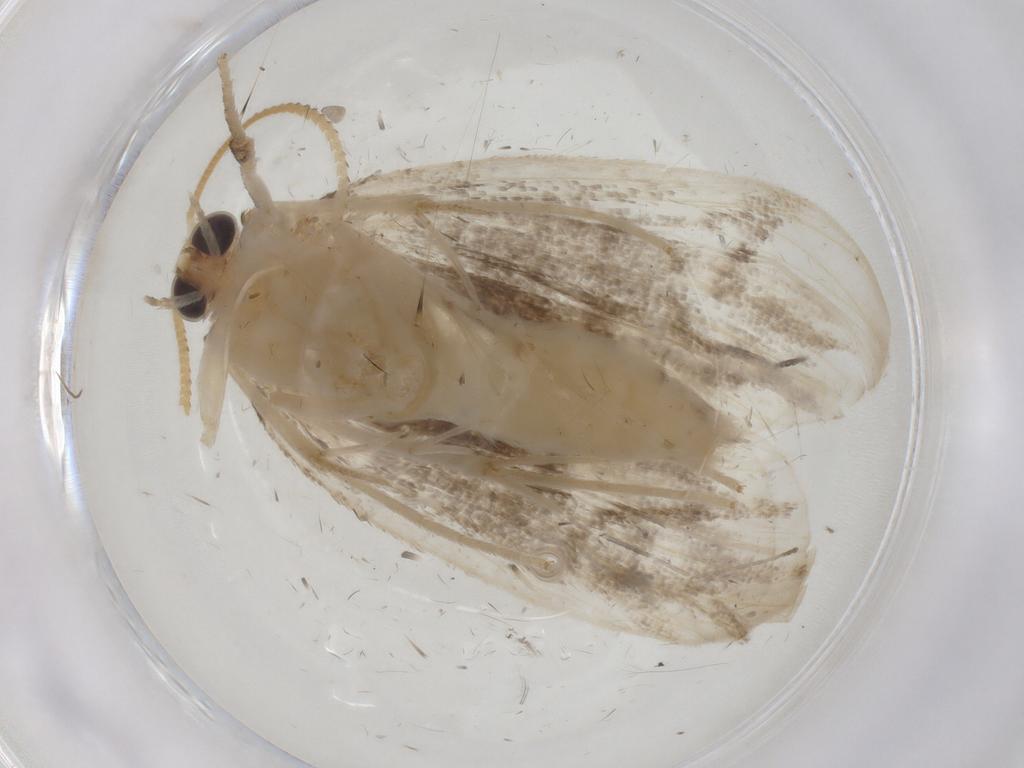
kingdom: Animalia
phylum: Arthropoda
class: Insecta
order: Lepidoptera
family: Crambidae
